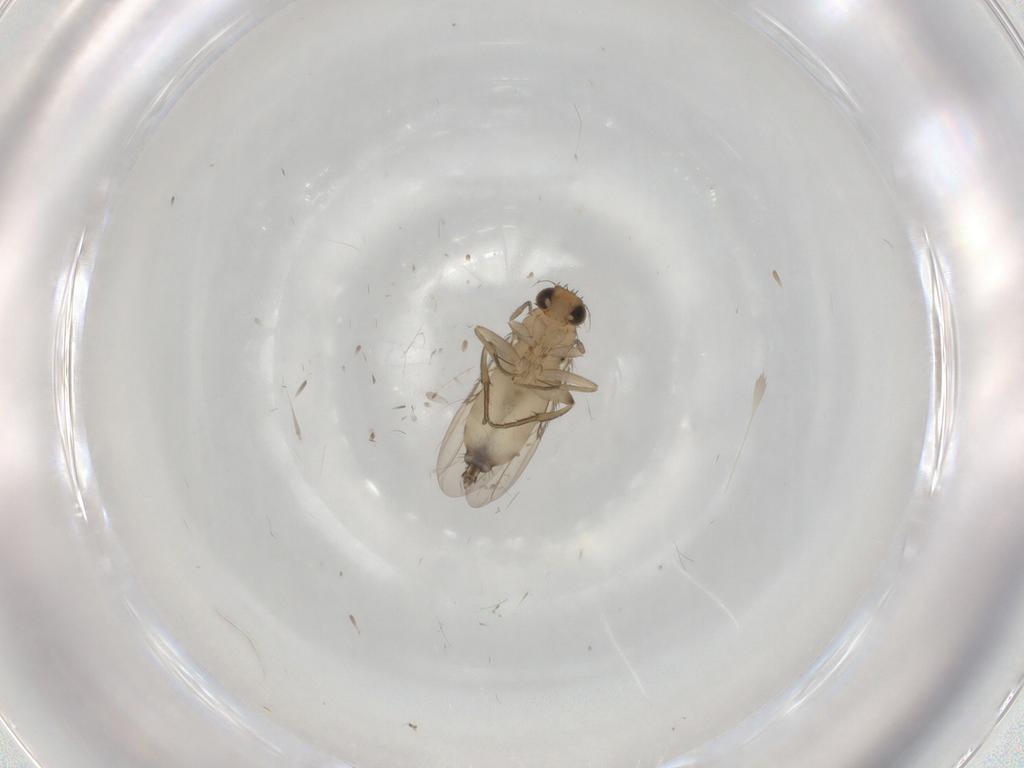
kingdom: Animalia
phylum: Arthropoda
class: Insecta
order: Diptera
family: Phoridae
